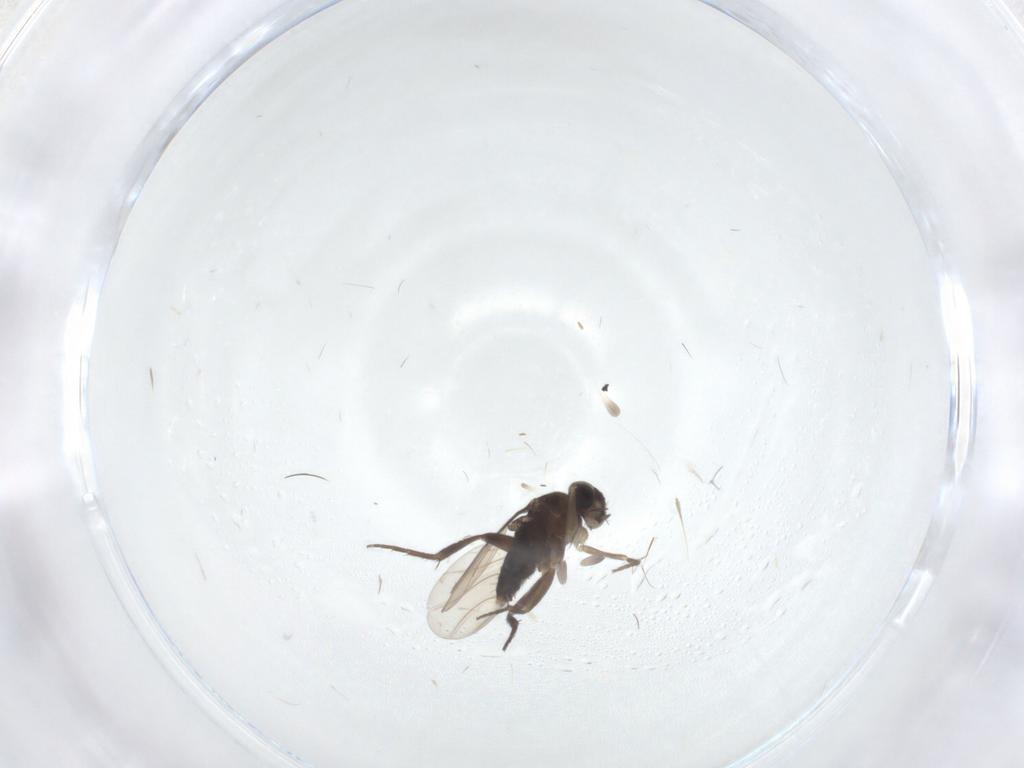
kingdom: Animalia
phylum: Arthropoda
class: Insecta
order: Diptera
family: Phoridae
